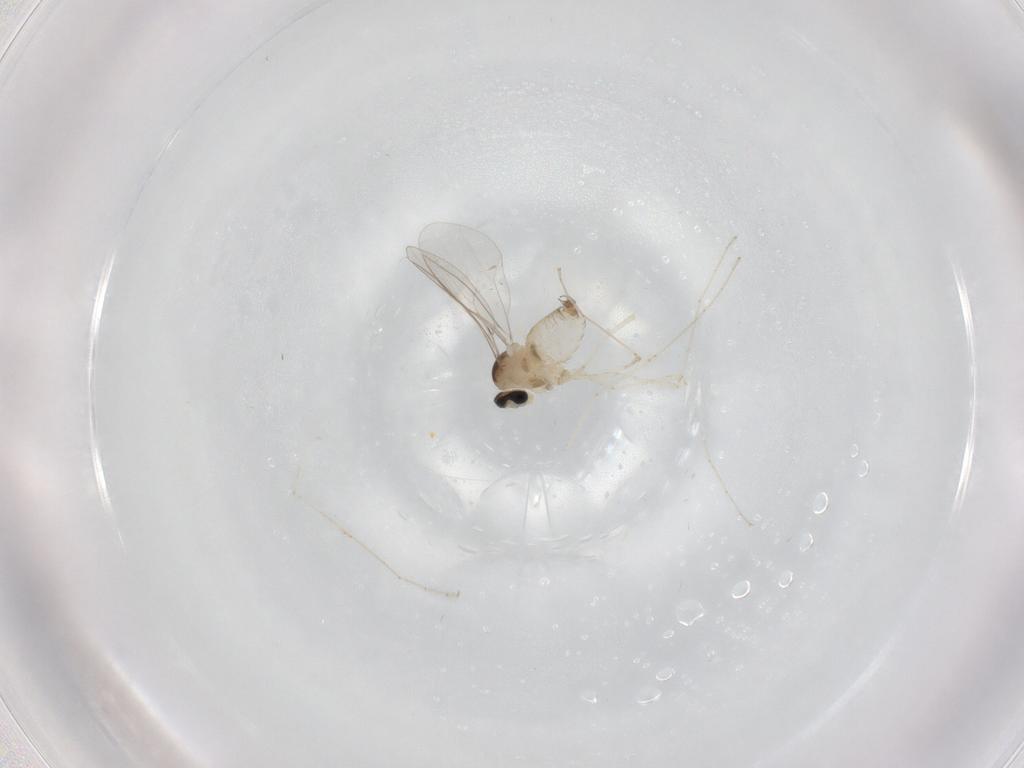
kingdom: Animalia
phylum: Arthropoda
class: Insecta
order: Diptera
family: Cecidomyiidae
